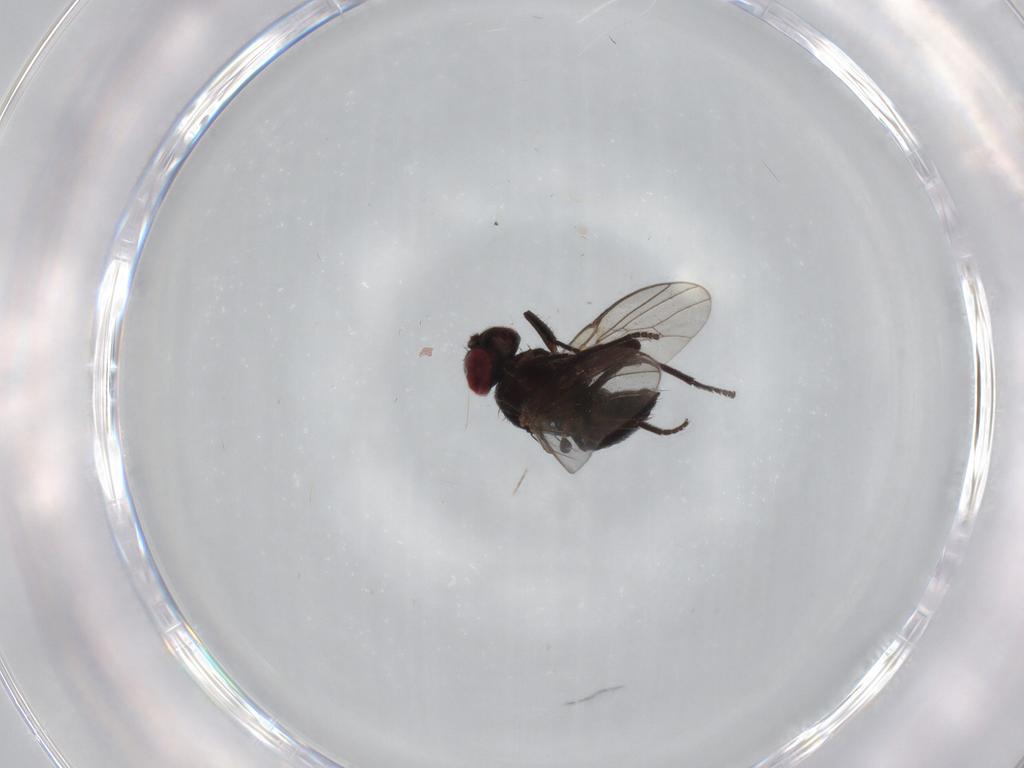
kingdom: Animalia
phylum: Arthropoda
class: Insecta
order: Diptera
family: Agromyzidae
